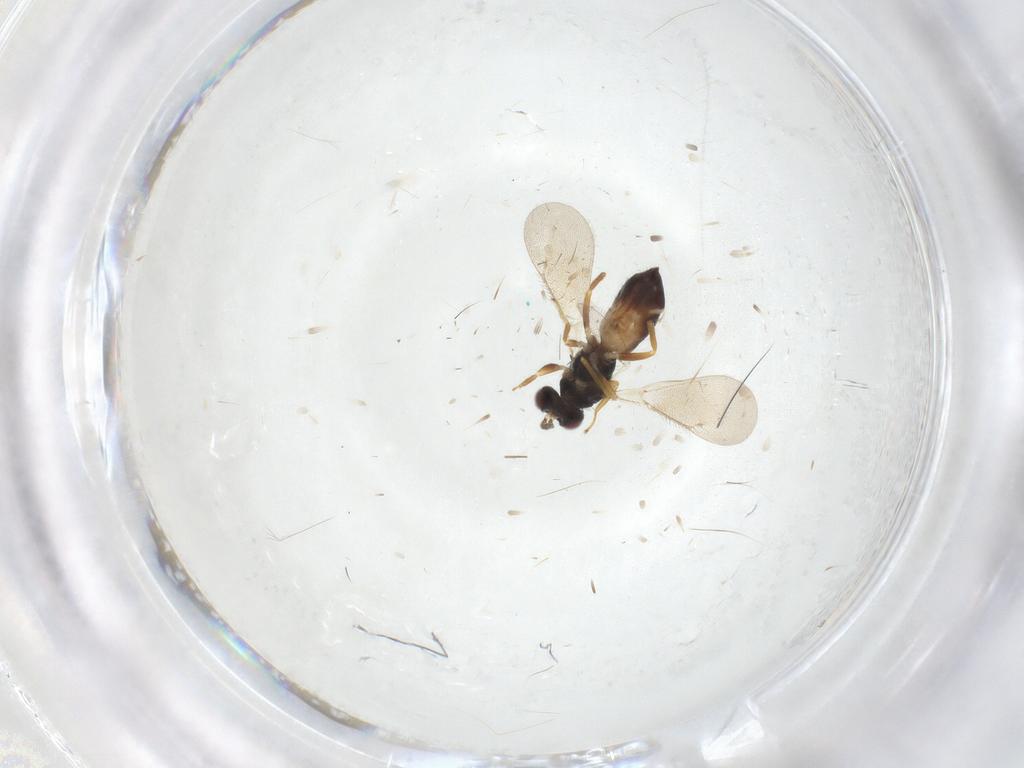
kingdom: Animalia
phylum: Arthropoda
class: Insecta
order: Hymenoptera
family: Eulophidae
